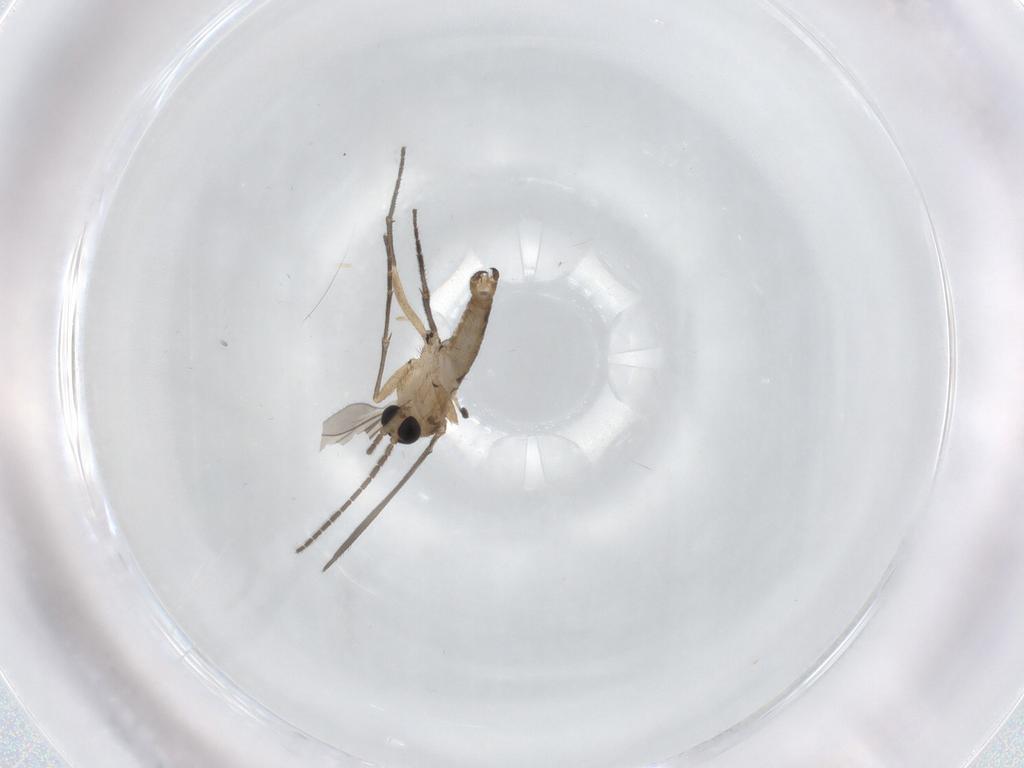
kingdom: Animalia
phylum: Arthropoda
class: Insecta
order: Diptera
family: Sciaridae
